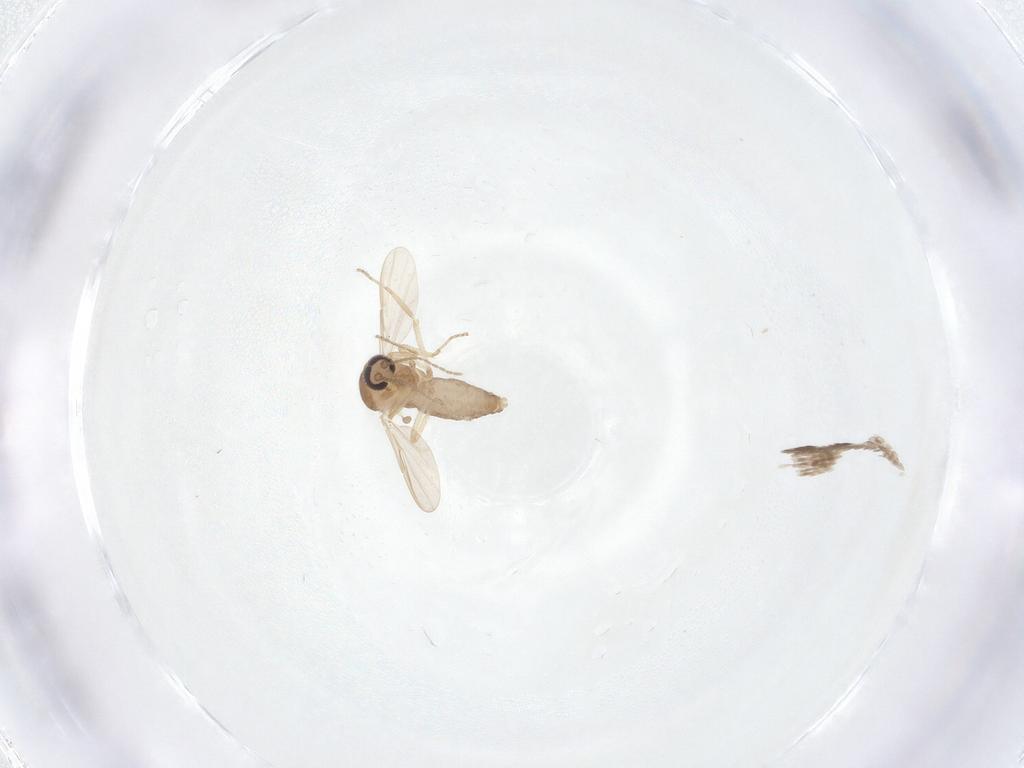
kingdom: Animalia
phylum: Arthropoda
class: Insecta
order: Diptera
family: Ceratopogonidae
